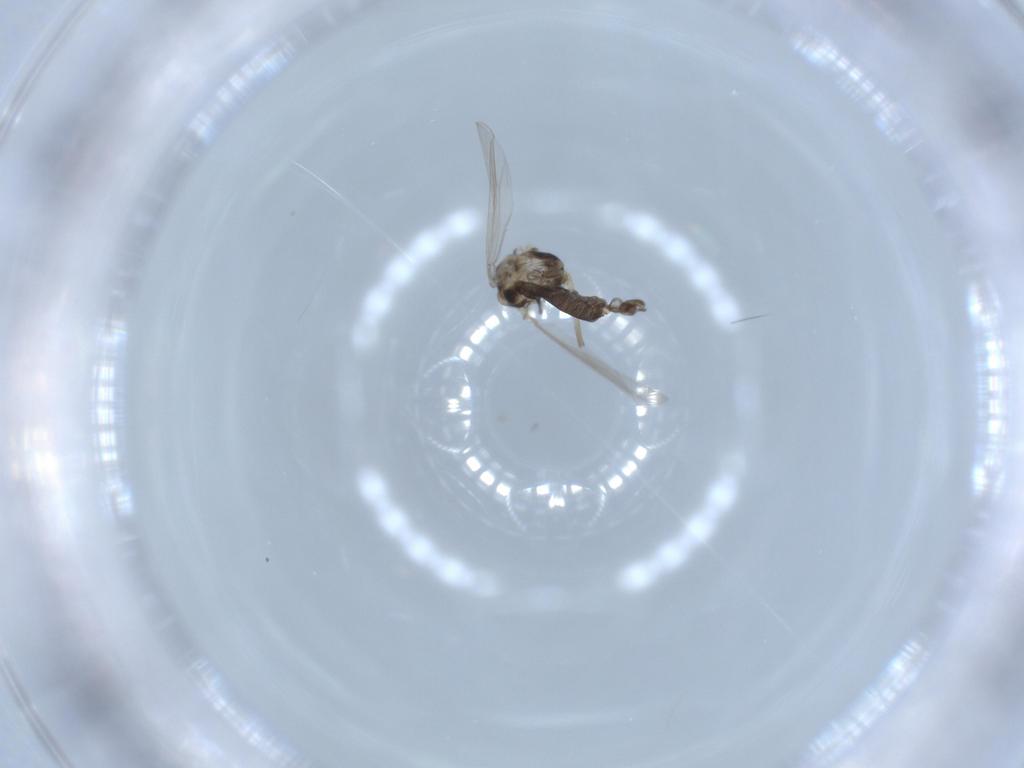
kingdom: Animalia
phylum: Arthropoda
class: Insecta
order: Diptera
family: Chironomidae
